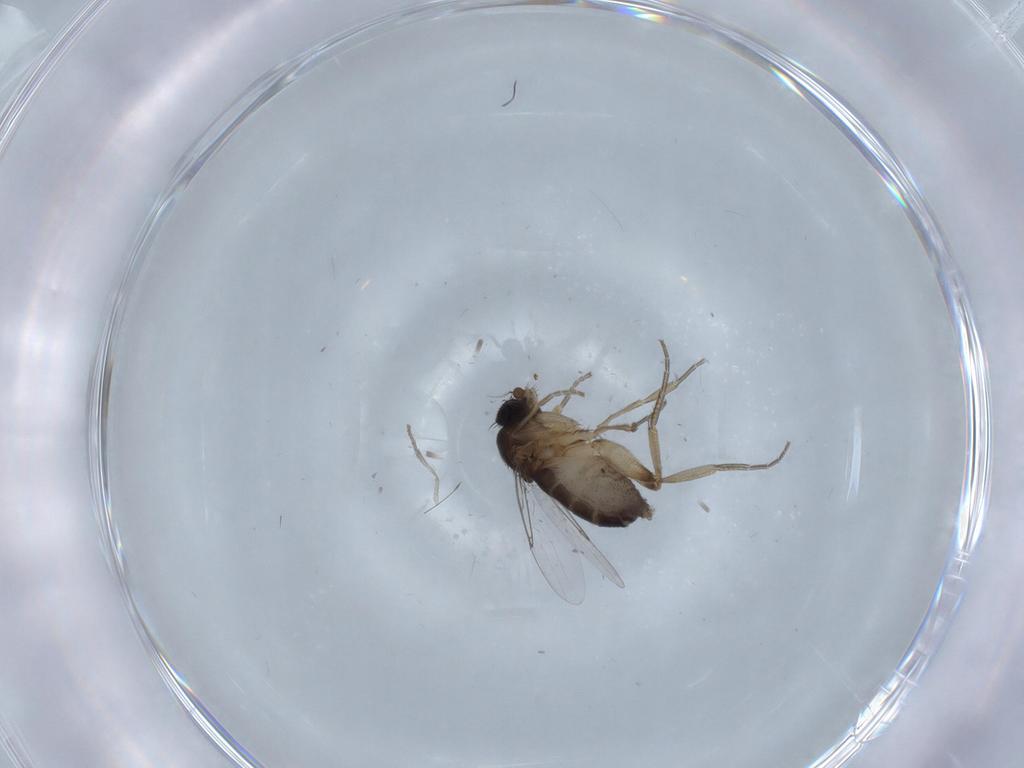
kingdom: Animalia
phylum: Arthropoda
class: Insecta
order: Diptera
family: Phoridae
